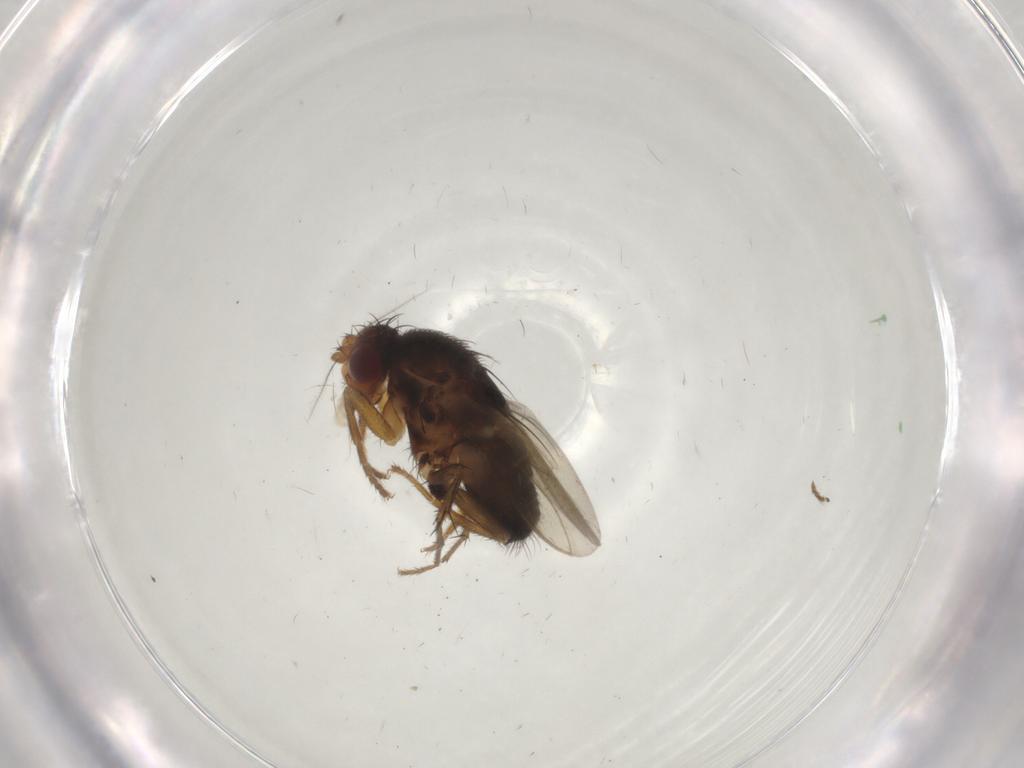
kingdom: Animalia
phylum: Arthropoda
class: Insecta
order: Diptera
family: Sphaeroceridae
